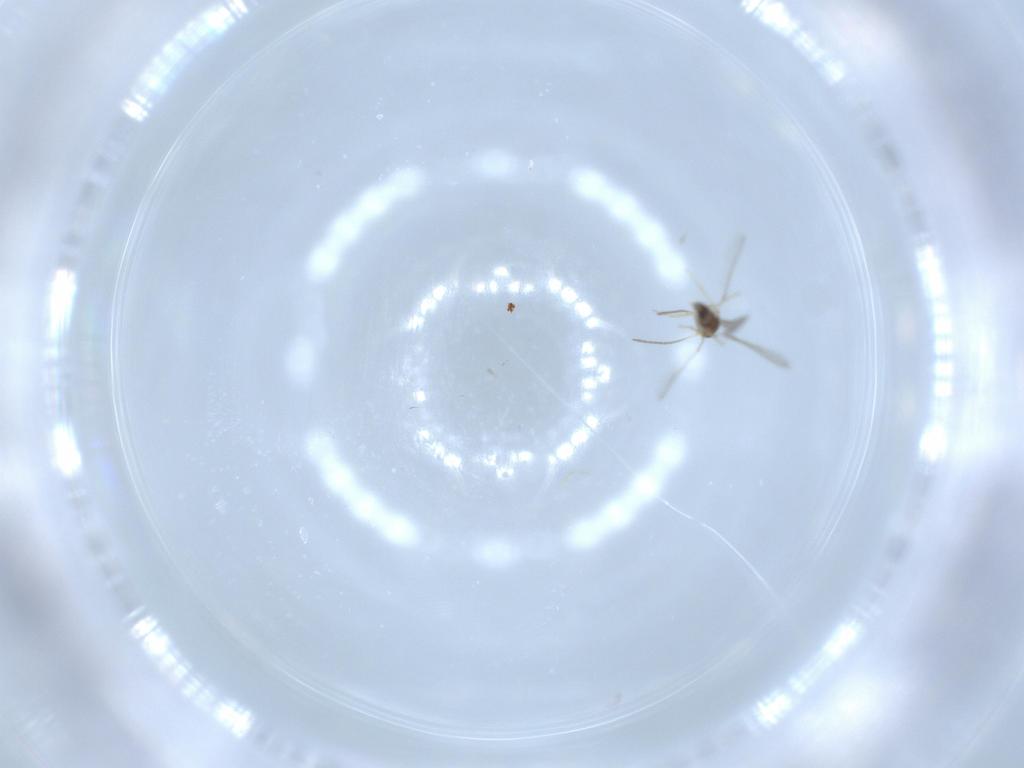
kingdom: Animalia
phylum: Arthropoda
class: Insecta
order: Hymenoptera
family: Mymaridae
